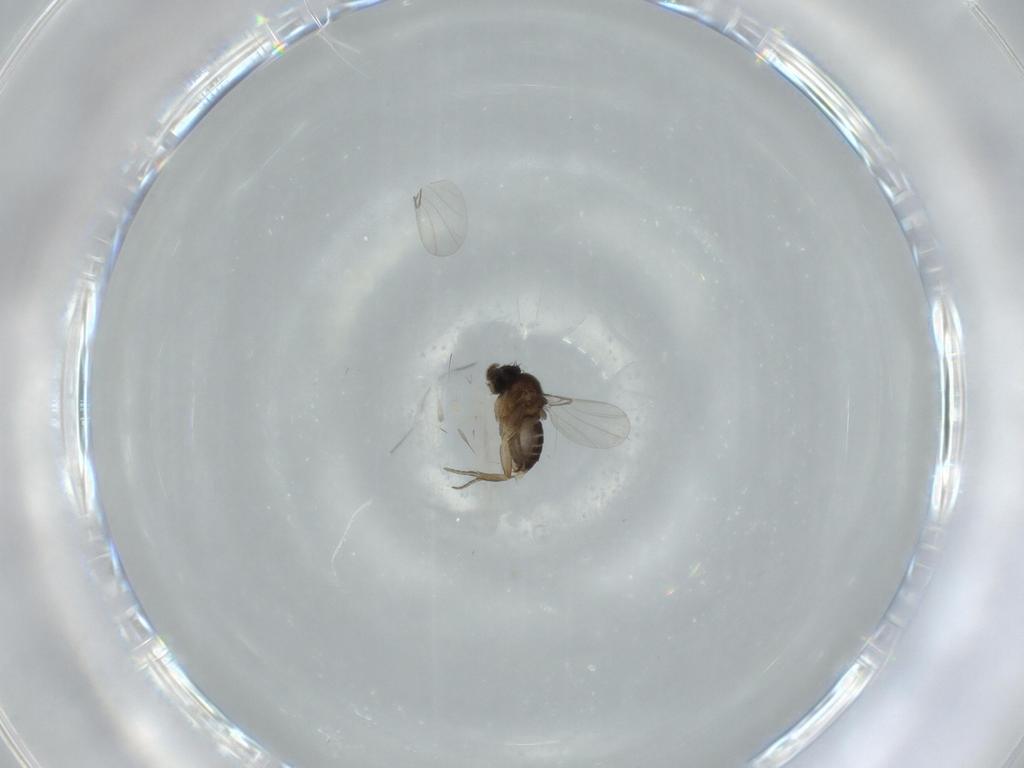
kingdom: Animalia
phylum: Arthropoda
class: Insecta
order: Diptera
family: Phoridae
